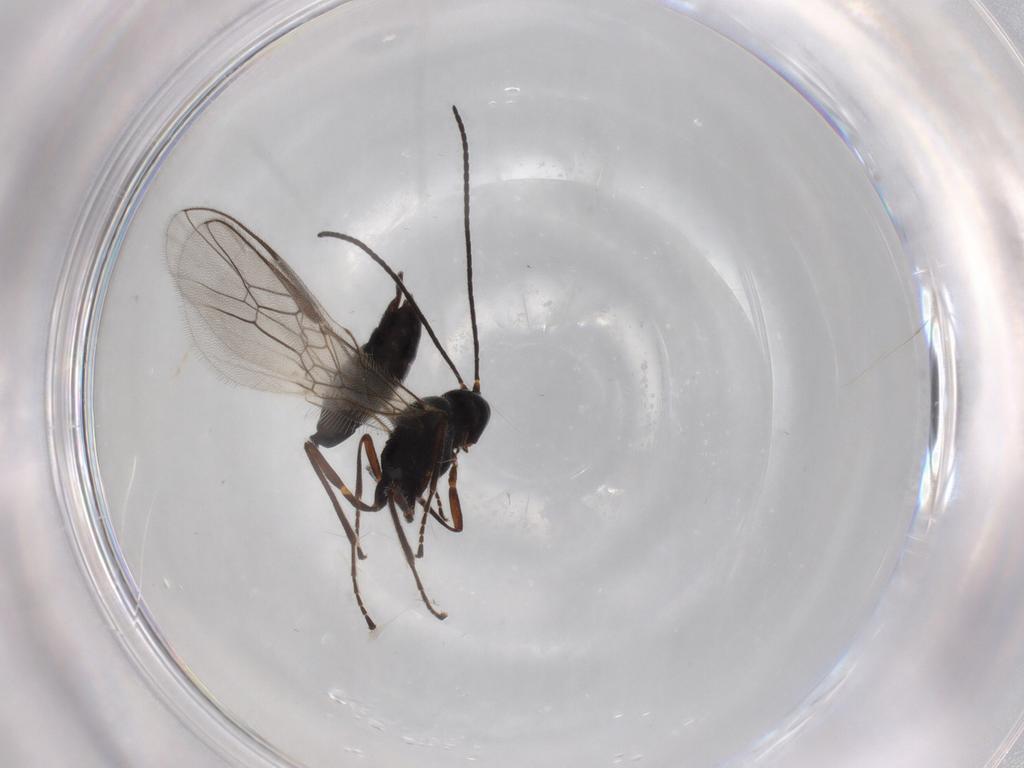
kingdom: Animalia
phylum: Arthropoda
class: Insecta
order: Hymenoptera
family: Braconidae
